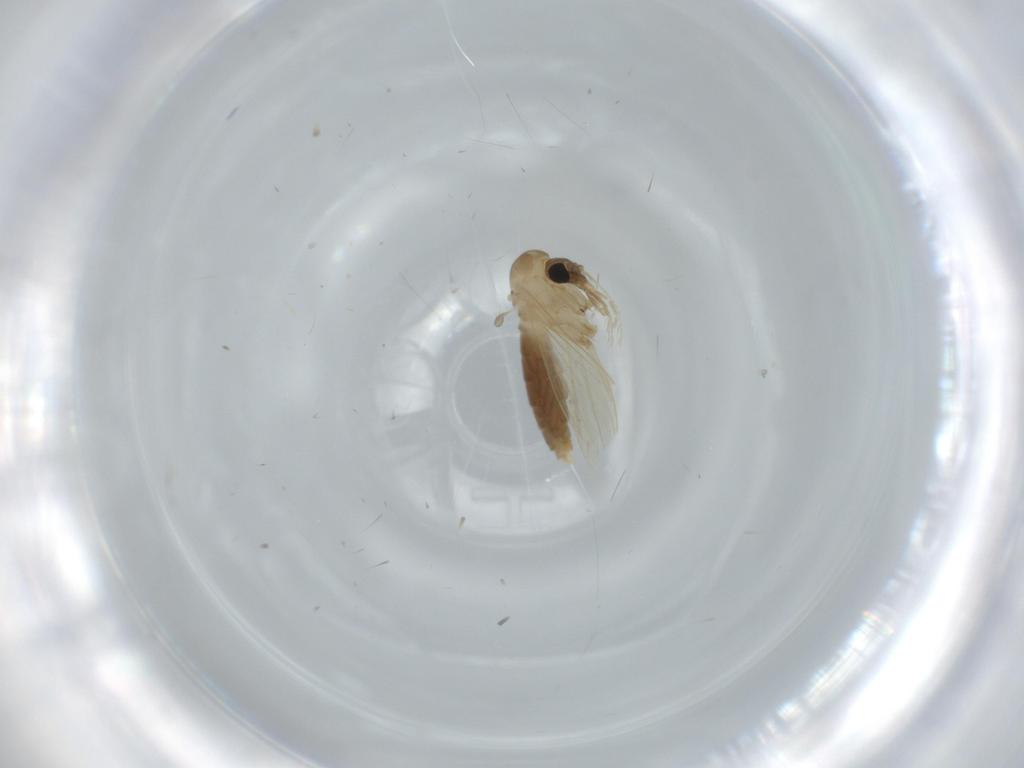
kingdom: Animalia
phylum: Arthropoda
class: Insecta
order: Diptera
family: Psychodidae
